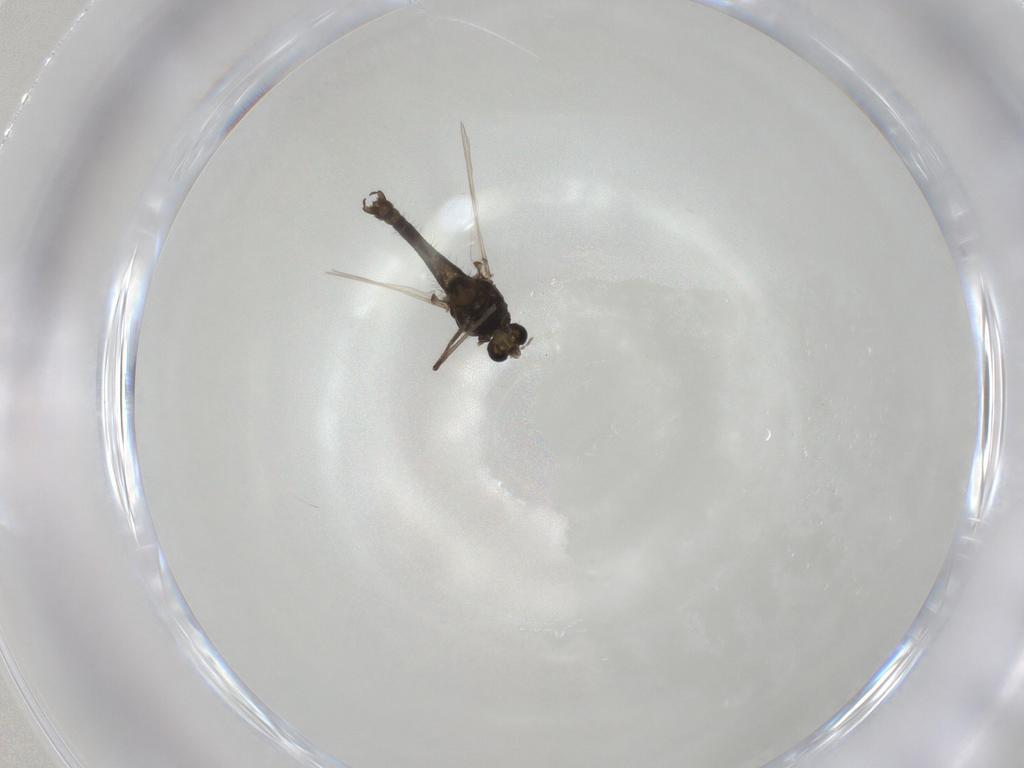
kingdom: Animalia
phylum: Arthropoda
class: Insecta
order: Diptera
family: Chironomidae
